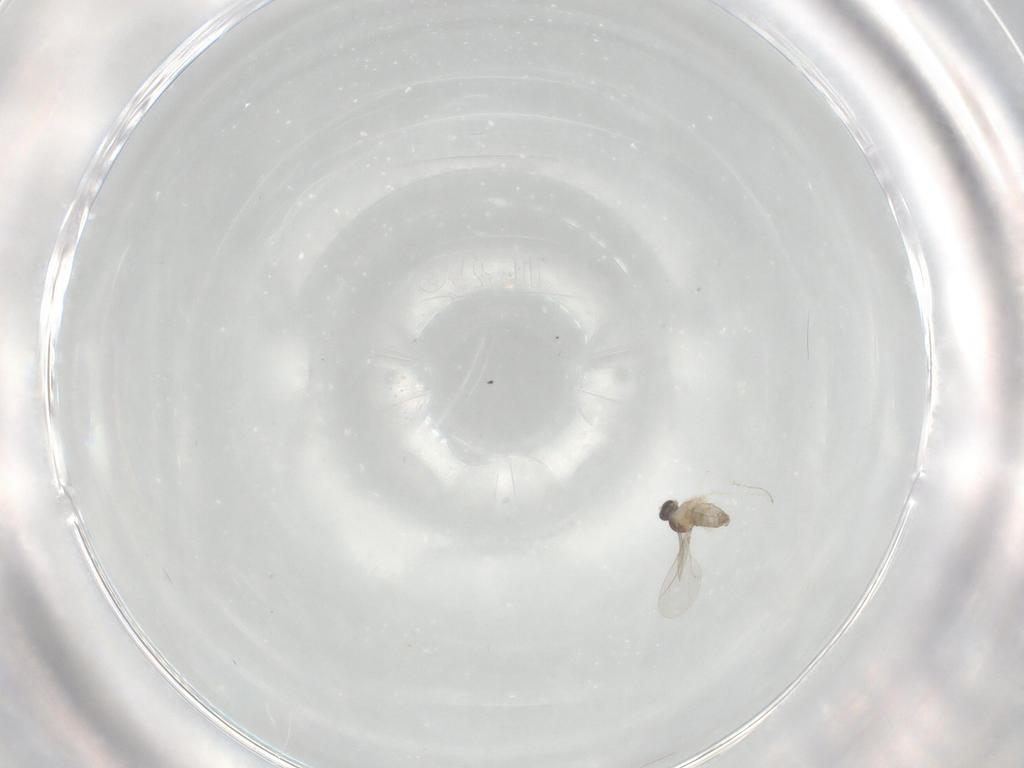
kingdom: Animalia
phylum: Arthropoda
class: Insecta
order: Diptera
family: Cecidomyiidae
